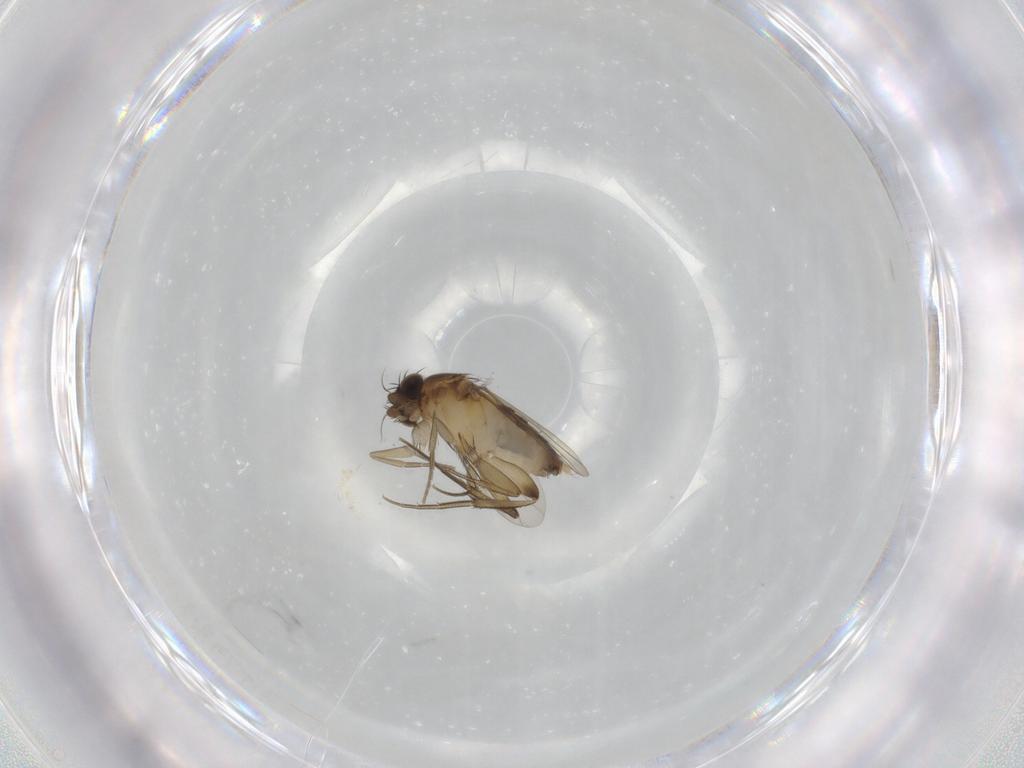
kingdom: Animalia
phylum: Arthropoda
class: Insecta
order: Diptera
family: Phoridae
